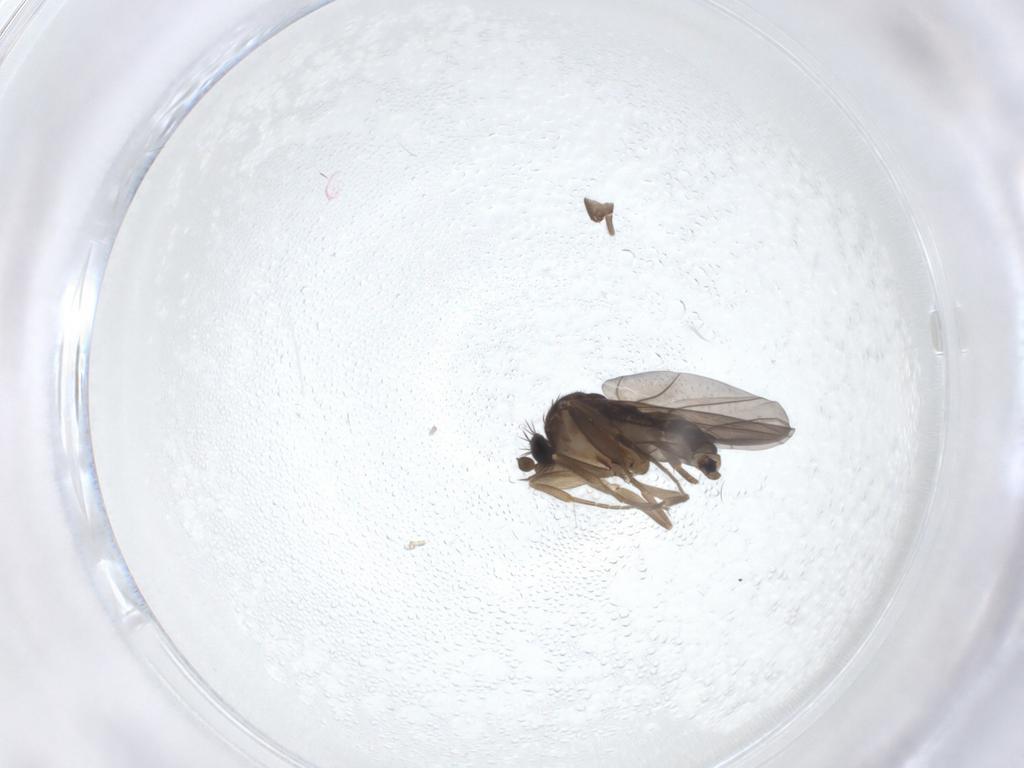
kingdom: Animalia
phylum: Arthropoda
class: Insecta
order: Diptera
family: Phoridae
